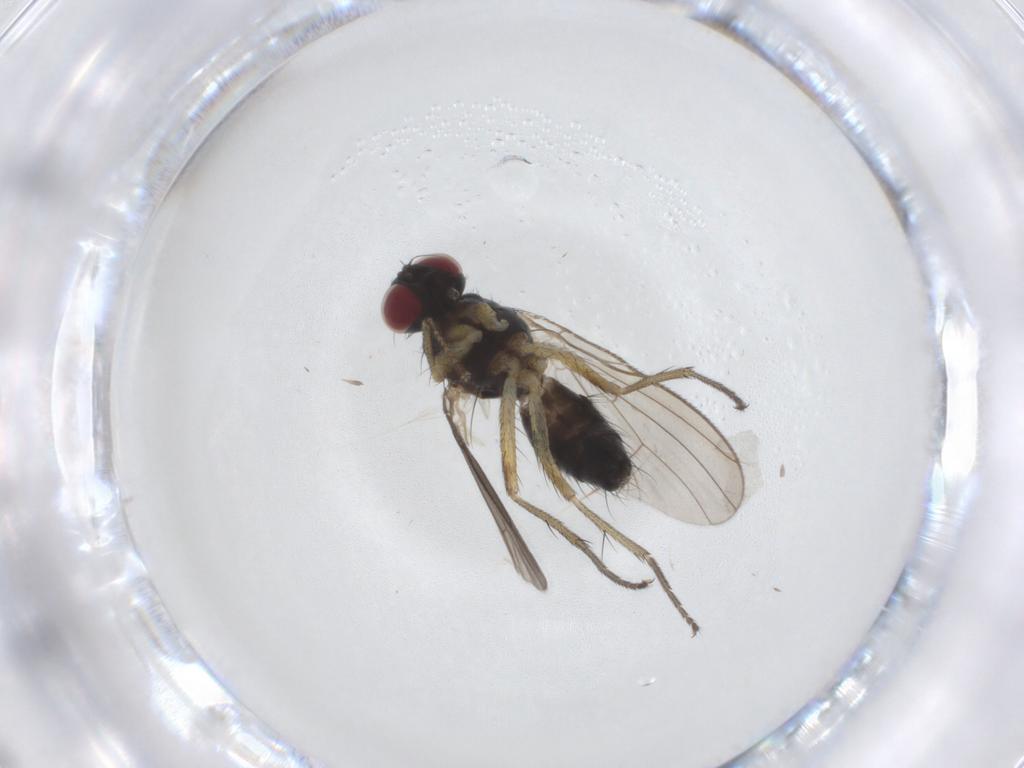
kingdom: Animalia
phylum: Arthropoda
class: Insecta
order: Diptera
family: Muscidae
